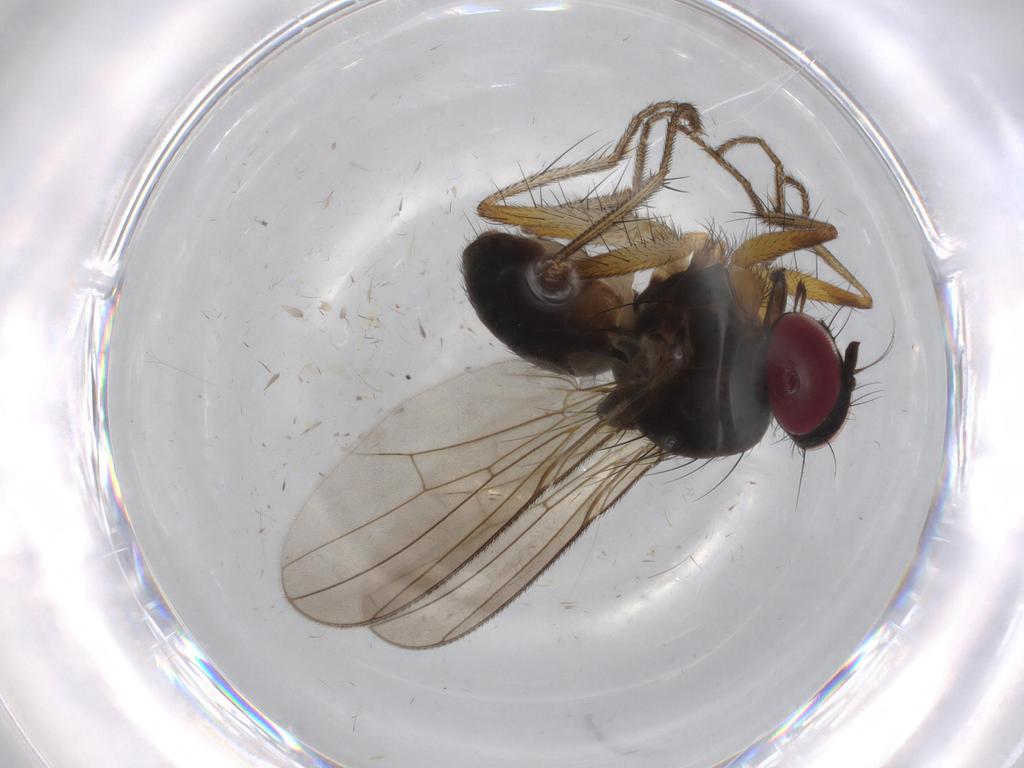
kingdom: Animalia
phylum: Arthropoda
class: Insecta
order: Diptera
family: Anthomyiidae
